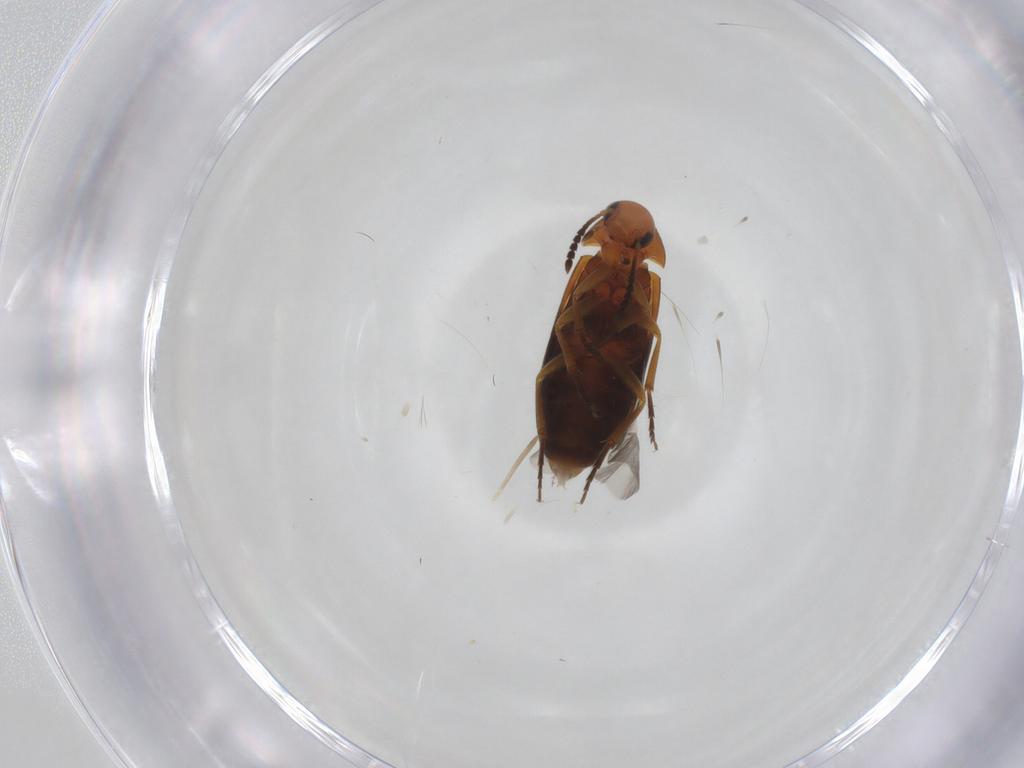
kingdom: Animalia
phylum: Arthropoda
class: Insecta
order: Coleoptera
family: Scraptiidae
